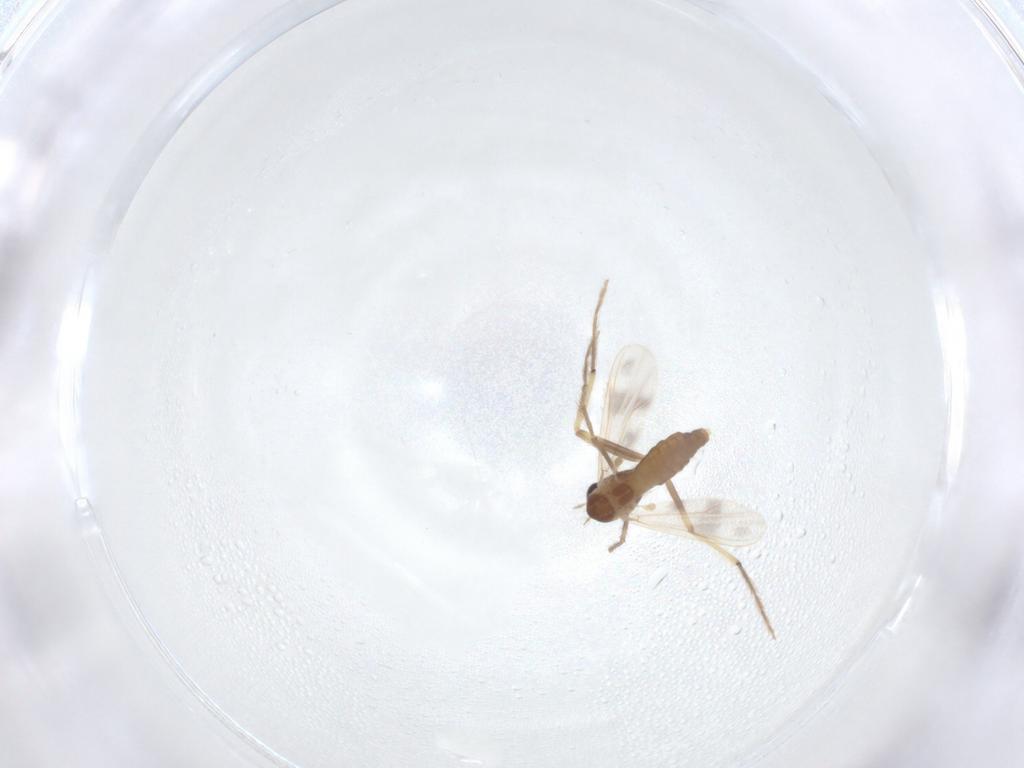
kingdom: Animalia
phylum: Arthropoda
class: Insecta
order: Diptera
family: Chironomidae
